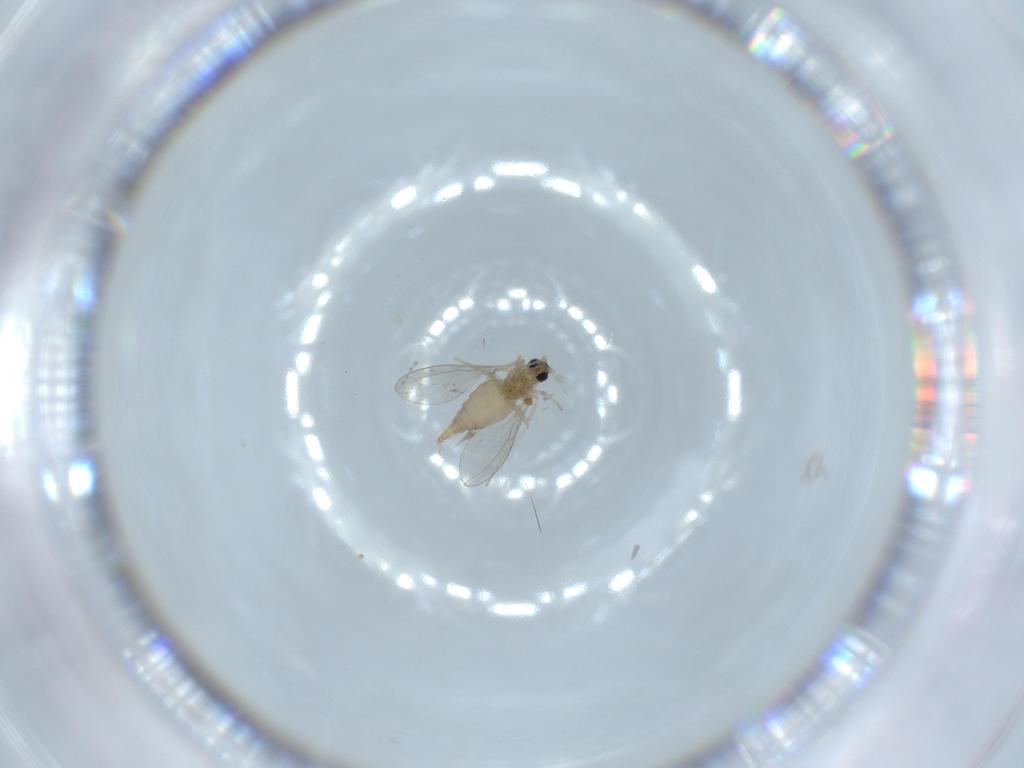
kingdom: Animalia
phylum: Arthropoda
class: Insecta
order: Diptera
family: Cecidomyiidae
